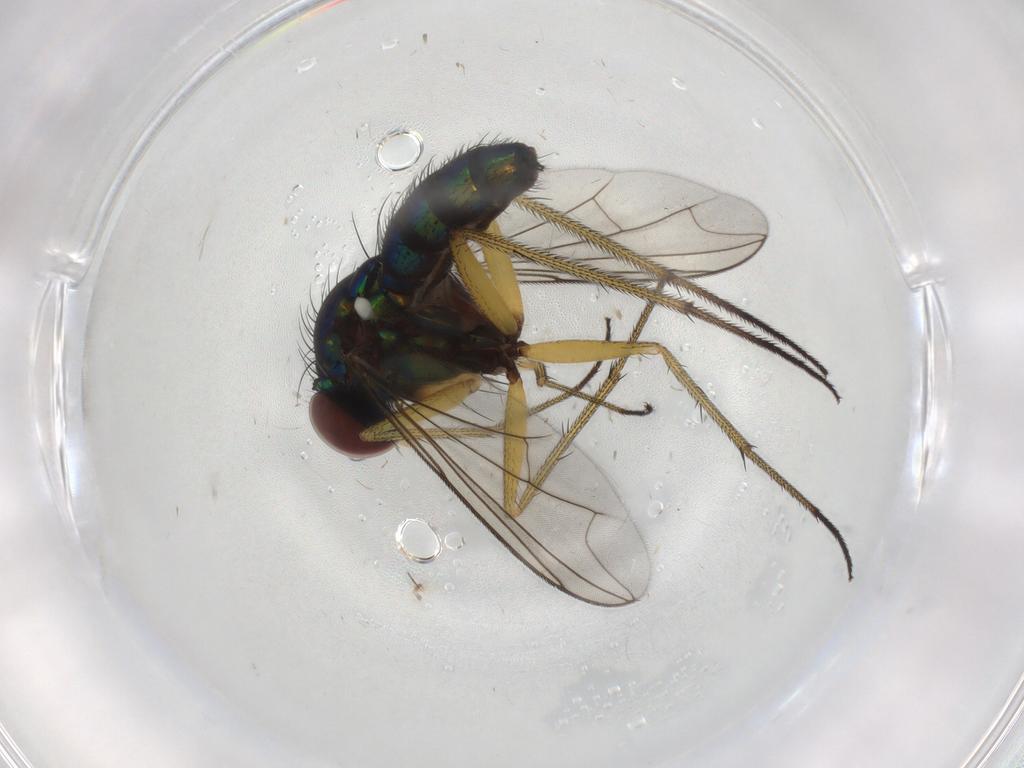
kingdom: Animalia
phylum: Arthropoda
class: Insecta
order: Diptera
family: Dolichopodidae
